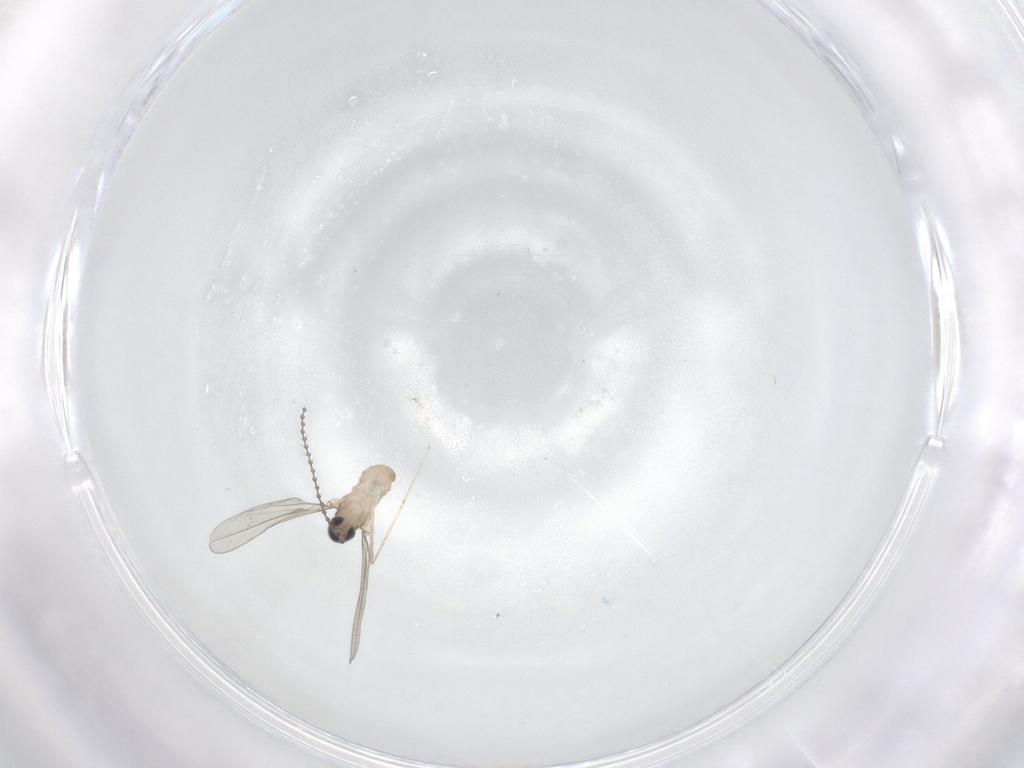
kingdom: Animalia
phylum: Arthropoda
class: Insecta
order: Diptera
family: Cecidomyiidae
